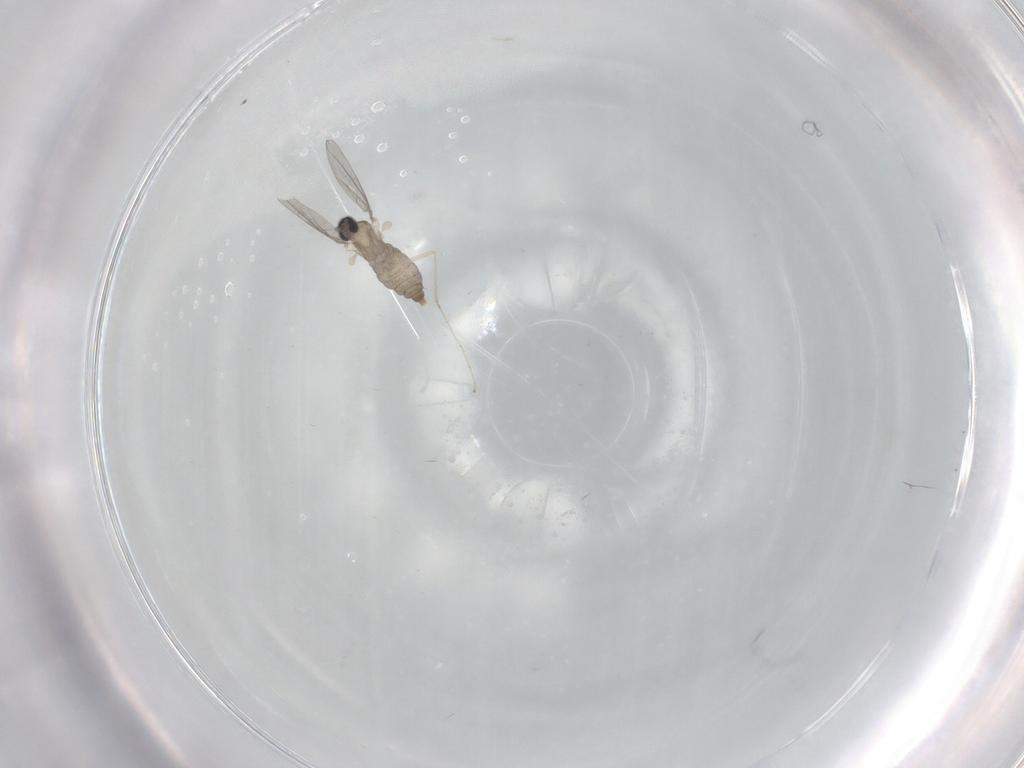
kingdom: Animalia
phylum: Arthropoda
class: Insecta
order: Diptera
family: Cecidomyiidae
